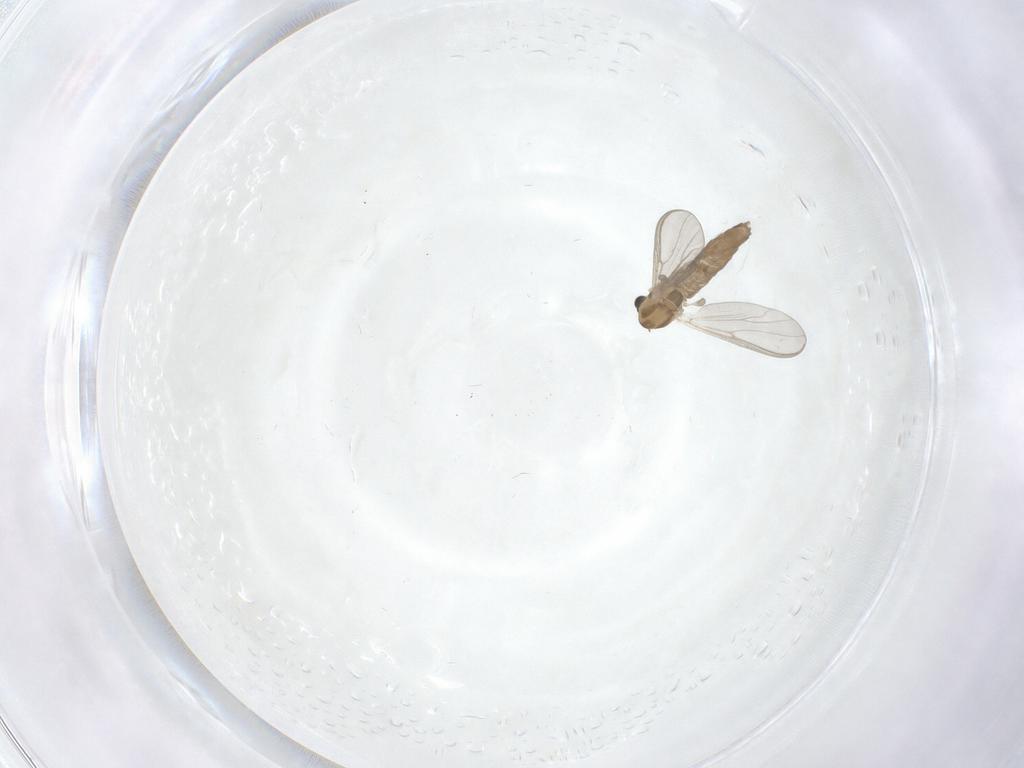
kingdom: Animalia
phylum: Arthropoda
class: Insecta
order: Diptera
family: Chironomidae
